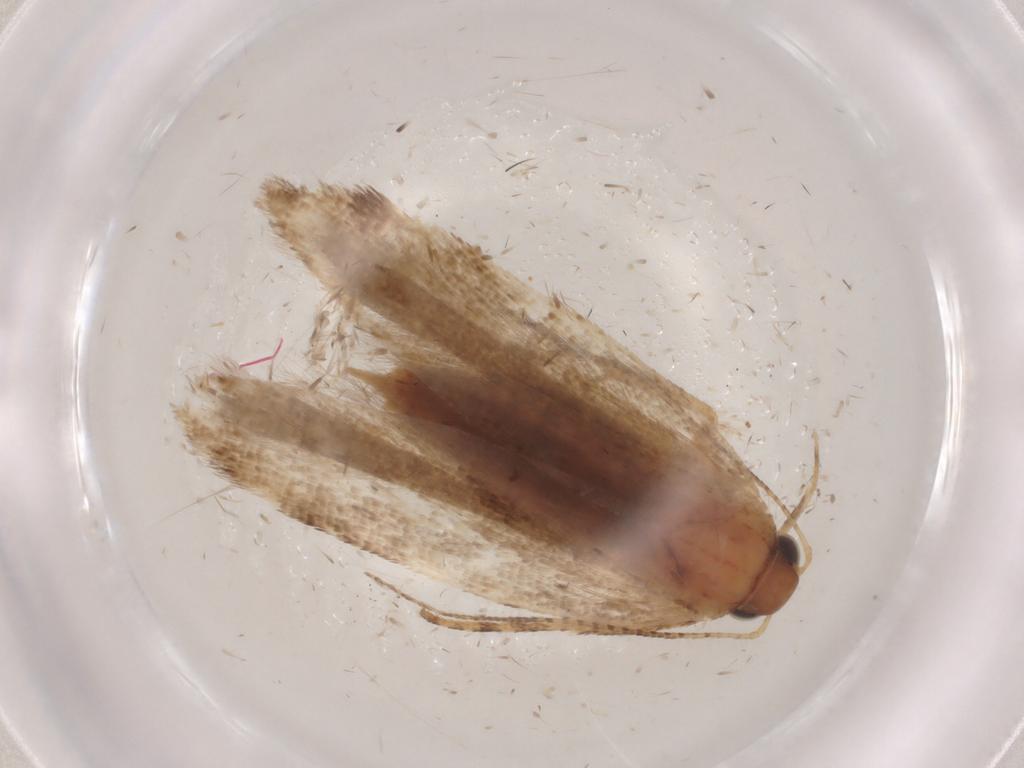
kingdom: Animalia
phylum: Arthropoda
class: Insecta
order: Lepidoptera
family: Gelechiidae
